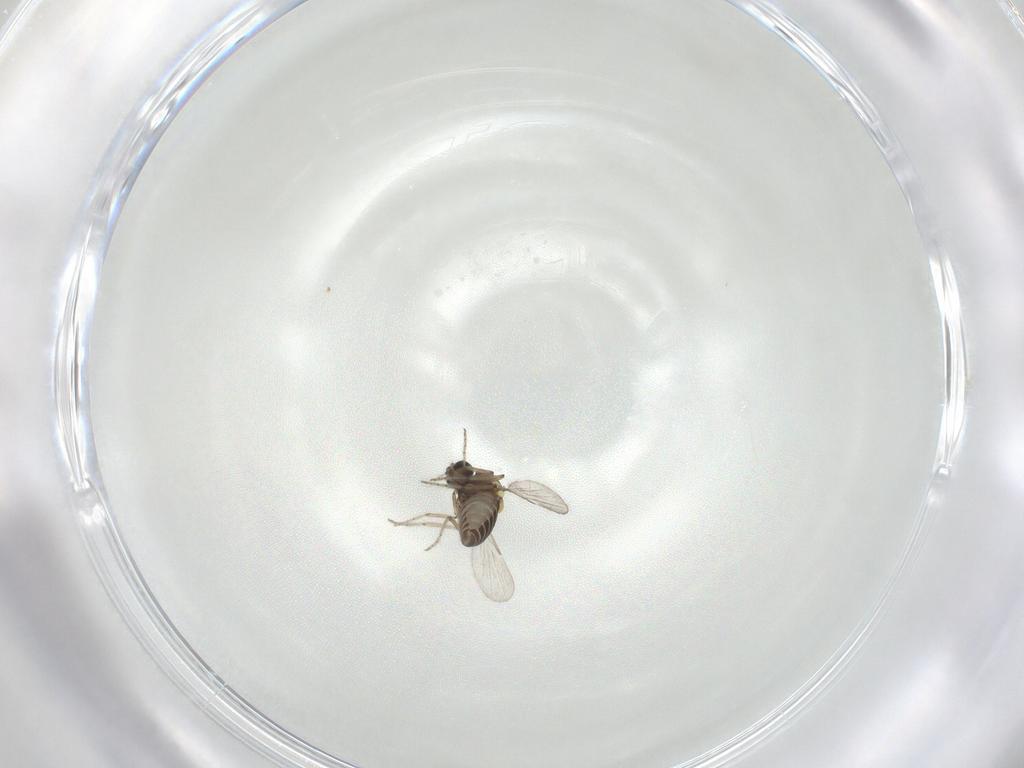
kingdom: Animalia
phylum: Arthropoda
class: Insecta
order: Diptera
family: Ceratopogonidae
